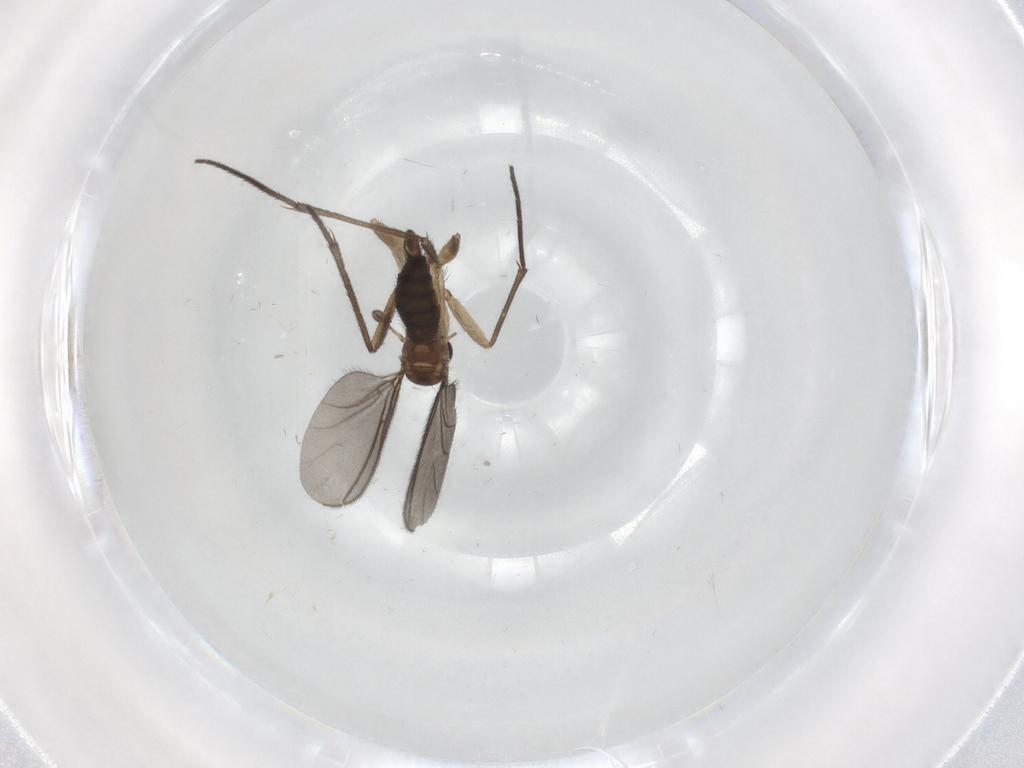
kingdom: Animalia
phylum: Arthropoda
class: Insecta
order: Diptera
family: Sciaridae
